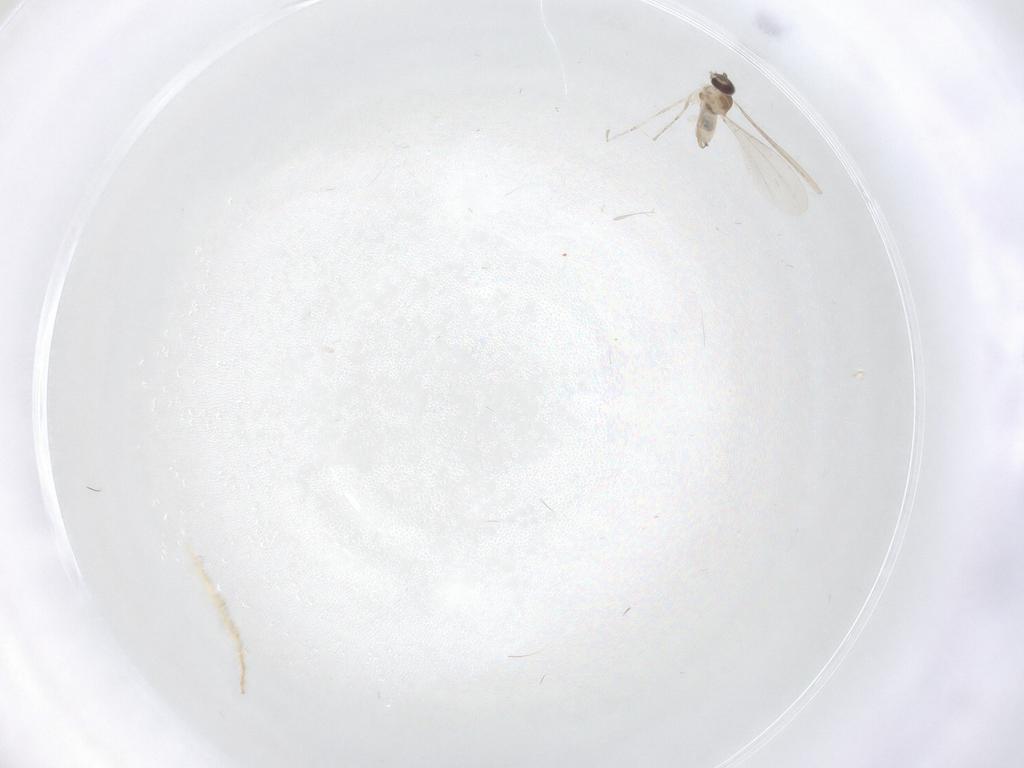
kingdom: Animalia
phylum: Arthropoda
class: Insecta
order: Diptera
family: Cecidomyiidae
